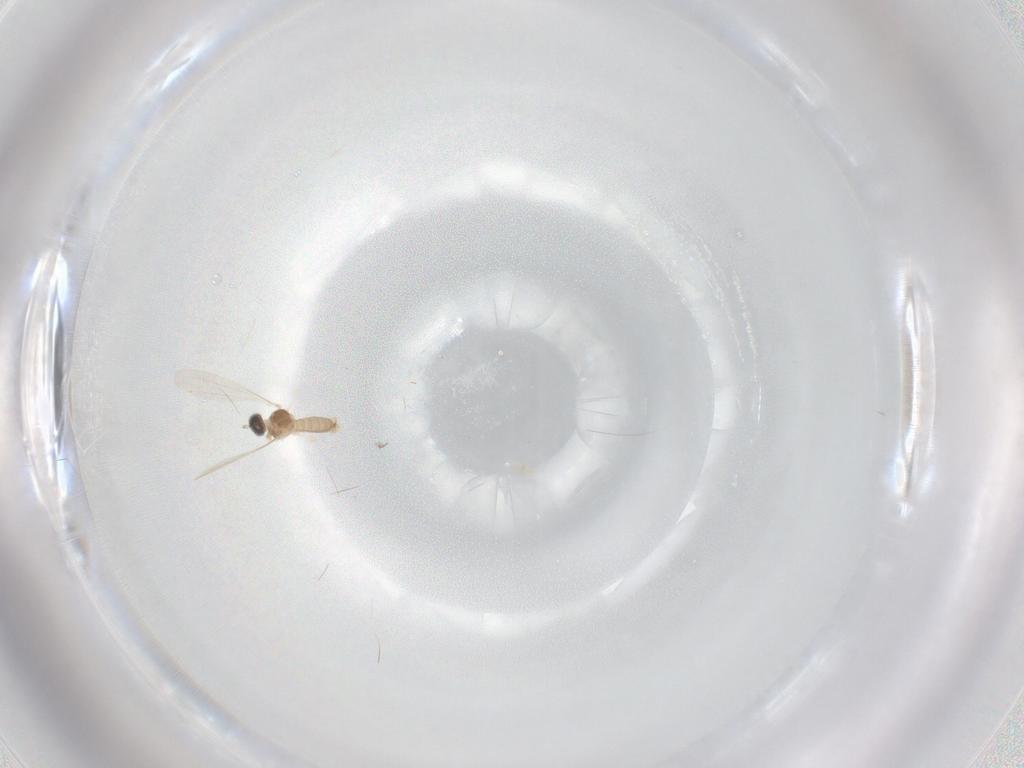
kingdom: Animalia
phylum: Arthropoda
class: Insecta
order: Diptera
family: Cecidomyiidae
